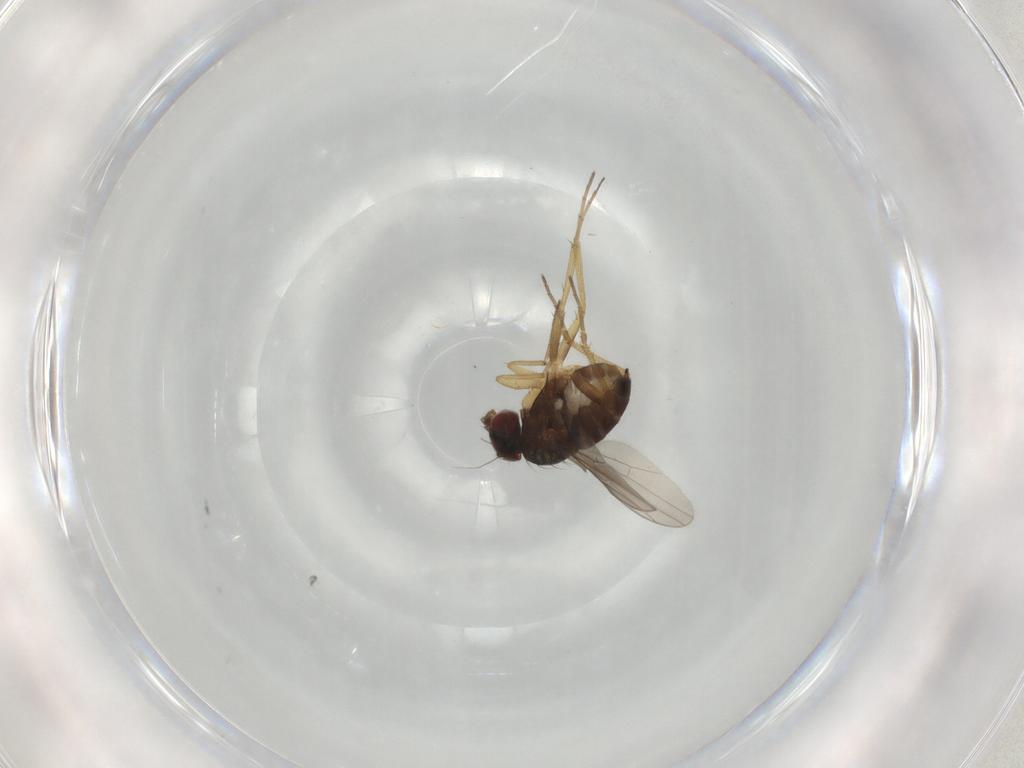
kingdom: Animalia
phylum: Arthropoda
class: Insecta
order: Diptera
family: Dolichopodidae
